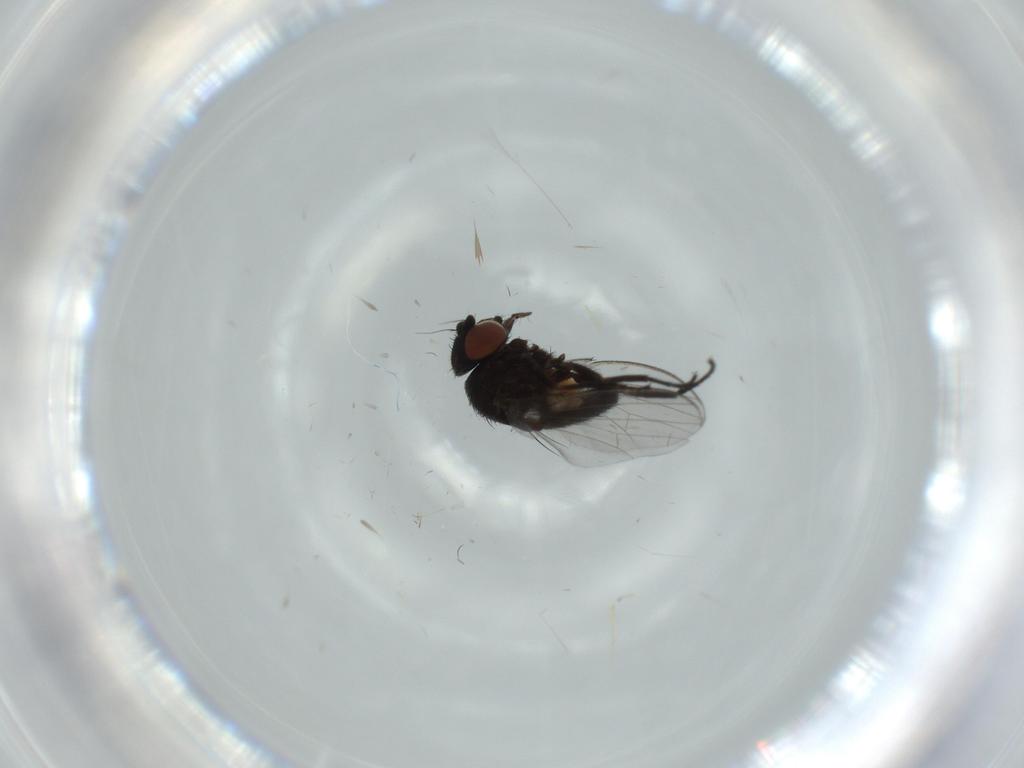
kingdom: Animalia
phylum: Arthropoda
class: Insecta
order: Diptera
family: Milichiidae
